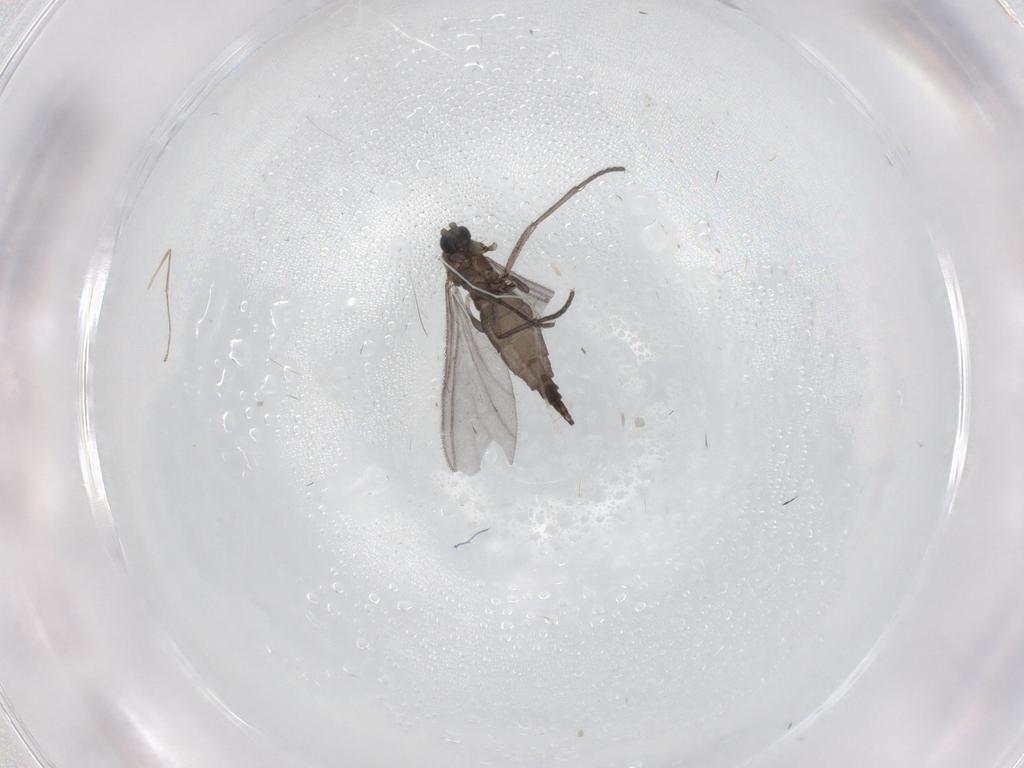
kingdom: Animalia
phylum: Arthropoda
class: Insecta
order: Diptera
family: Sciaridae
